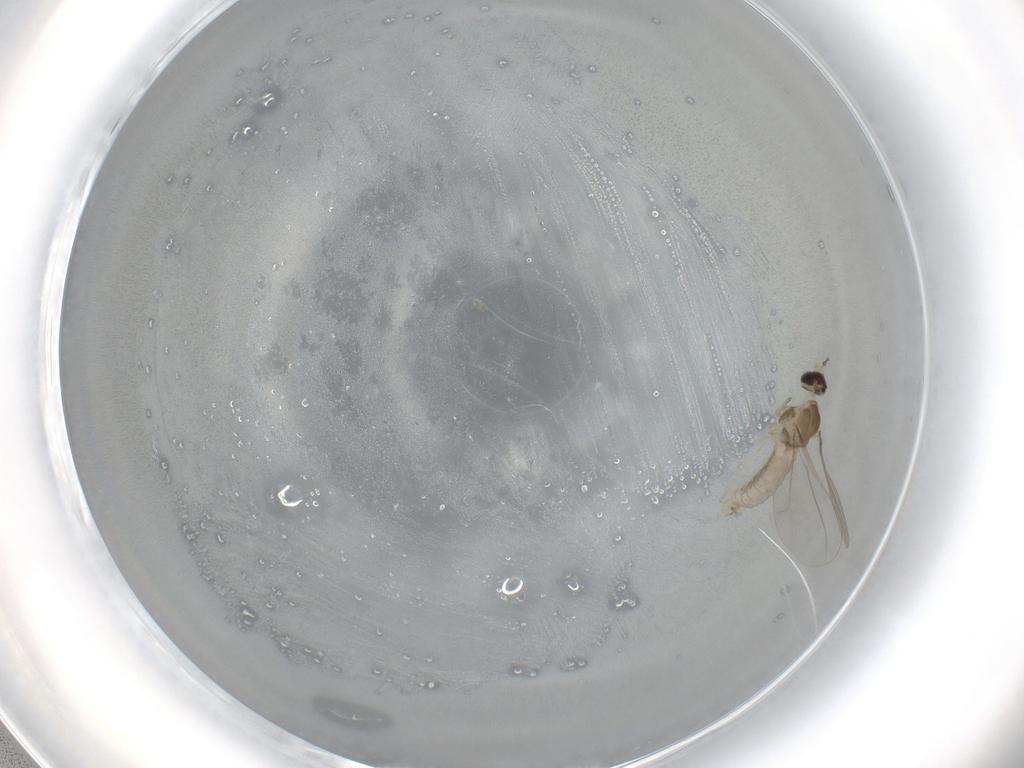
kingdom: Animalia
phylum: Arthropoda
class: Insecta
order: Diptera
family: Cecidomyiidae
